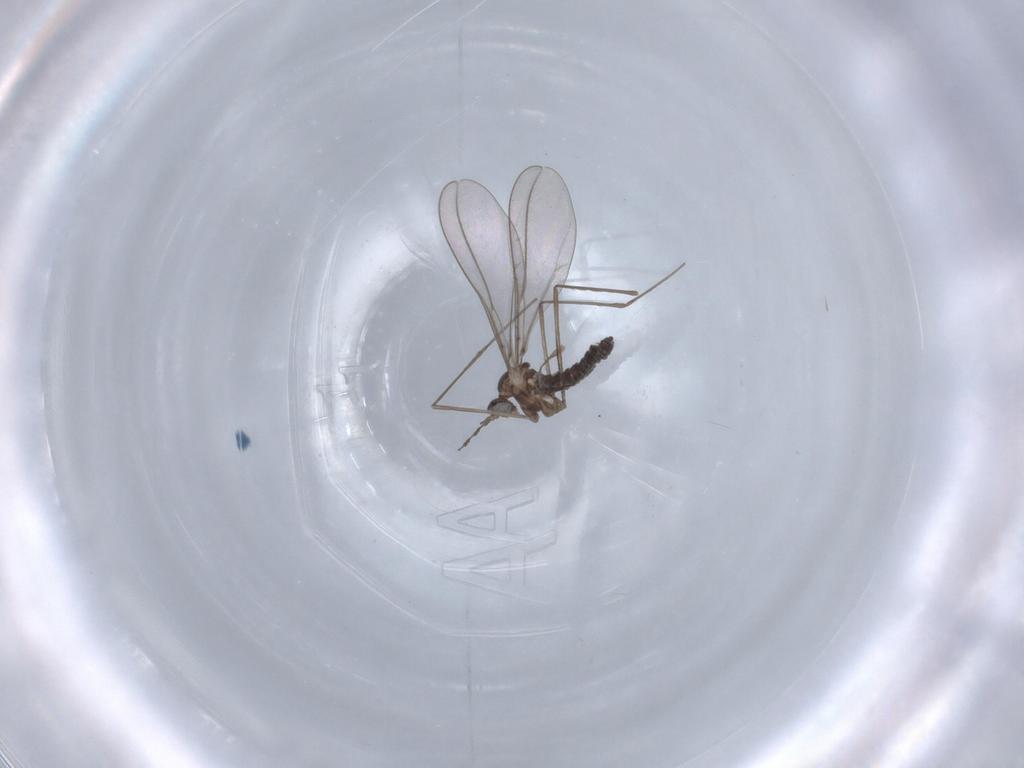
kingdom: Animalia
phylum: Arthropoda
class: Insecta
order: Diptera
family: Cecidomyiidae
